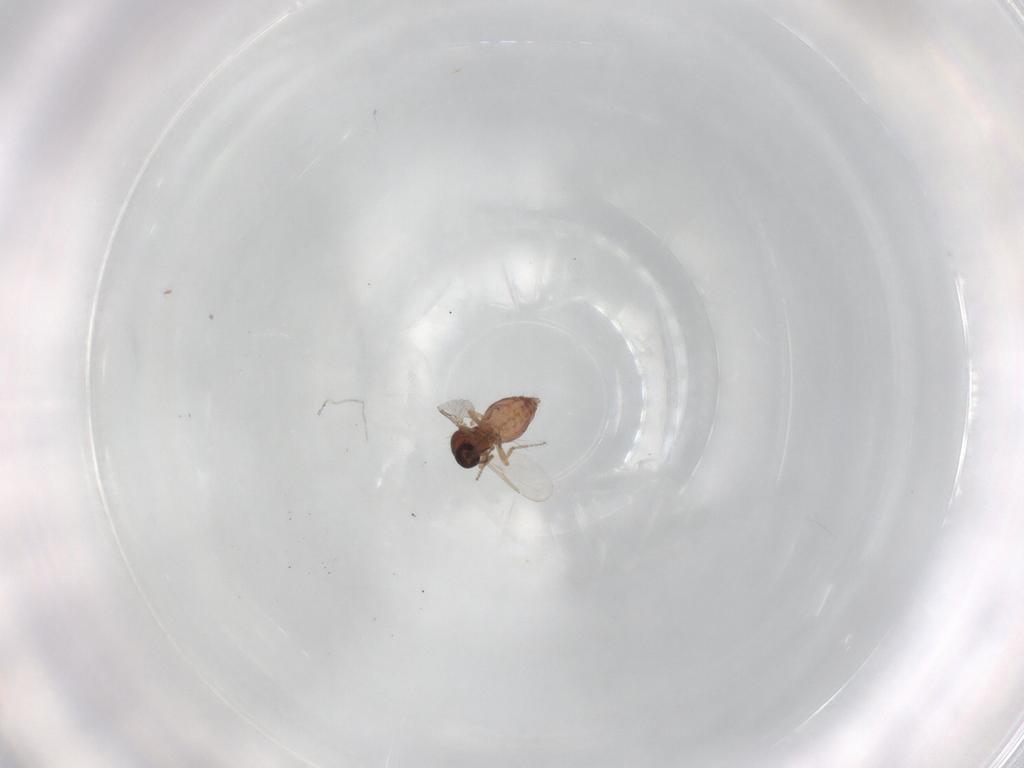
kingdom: Animalia
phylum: Arthropoda
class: Insecta
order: Diptera
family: Ceratopogonidae
